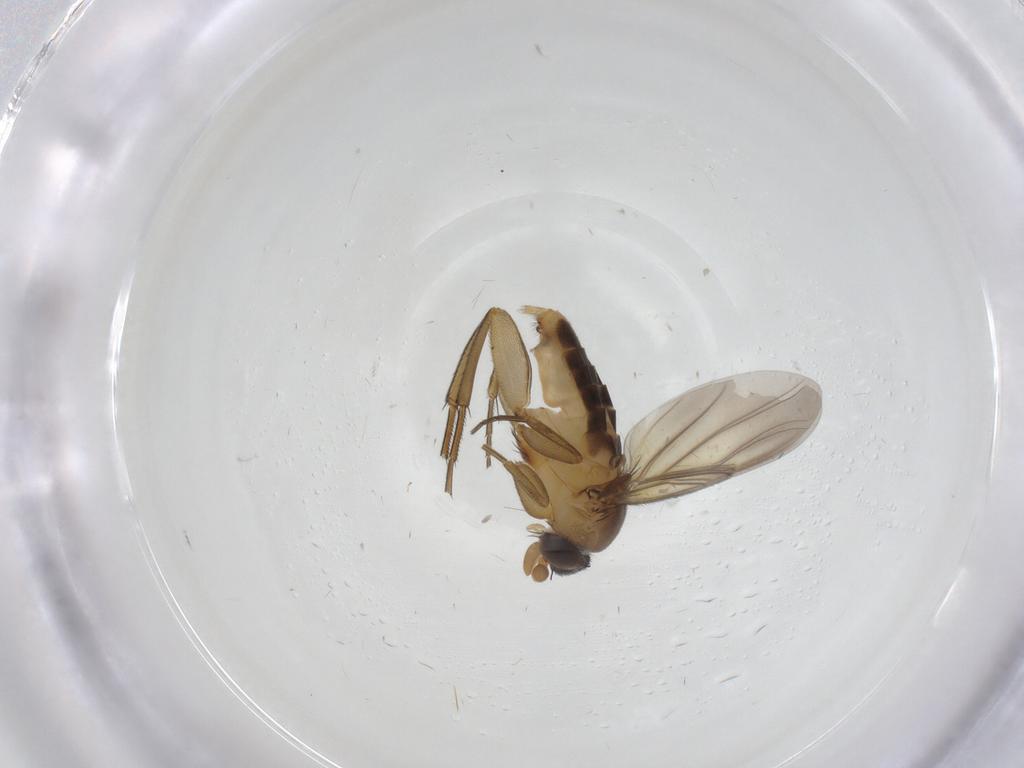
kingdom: Animalia
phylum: Arthropoda
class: Insecta
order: Diptera
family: Phoridae
